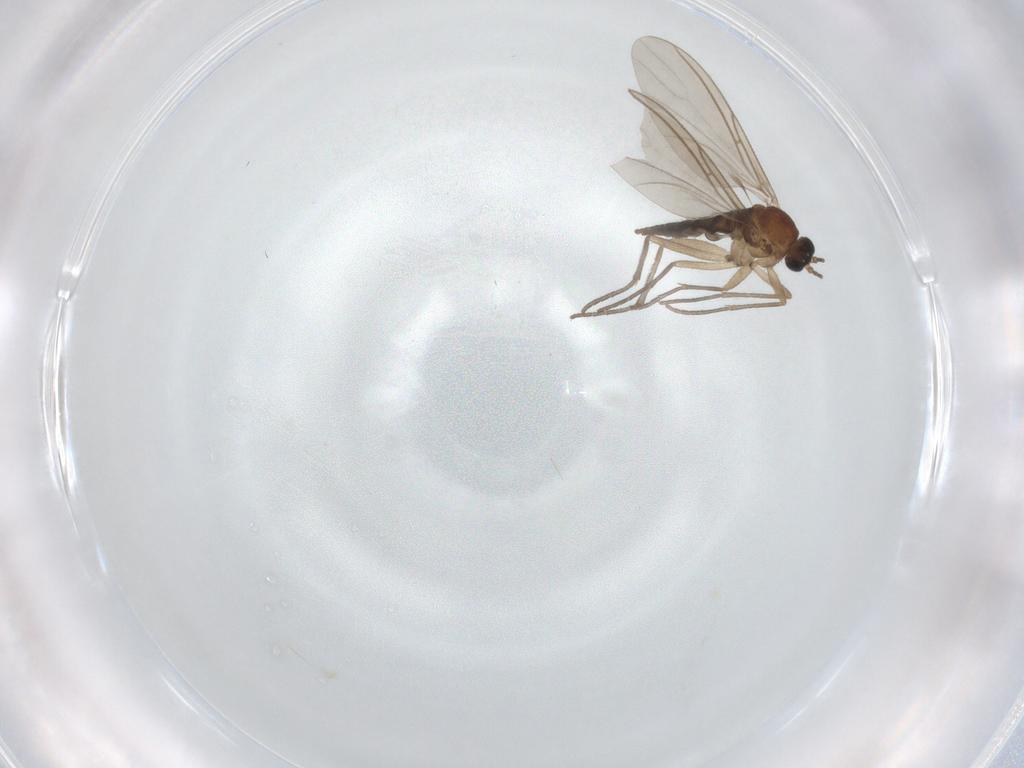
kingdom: Animalia
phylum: Arthropoda
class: Insecta
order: Diptera
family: Sciaridae
